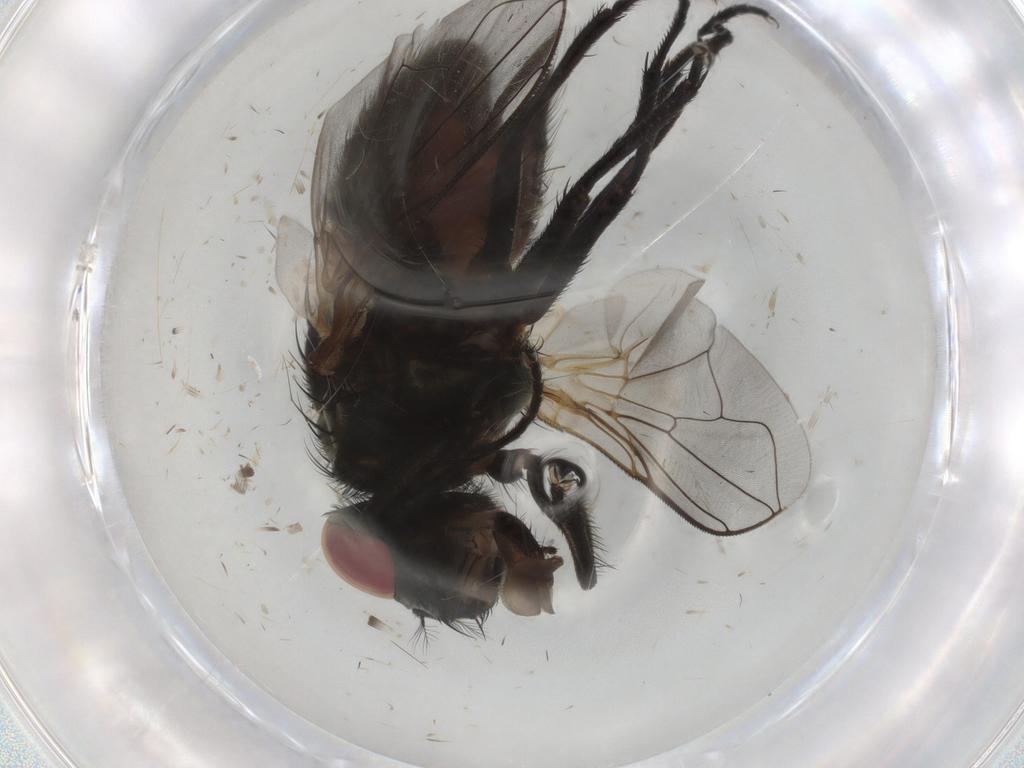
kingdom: Animalia
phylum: Arthropoda
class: Insecta
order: Diptera
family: Muscidae
